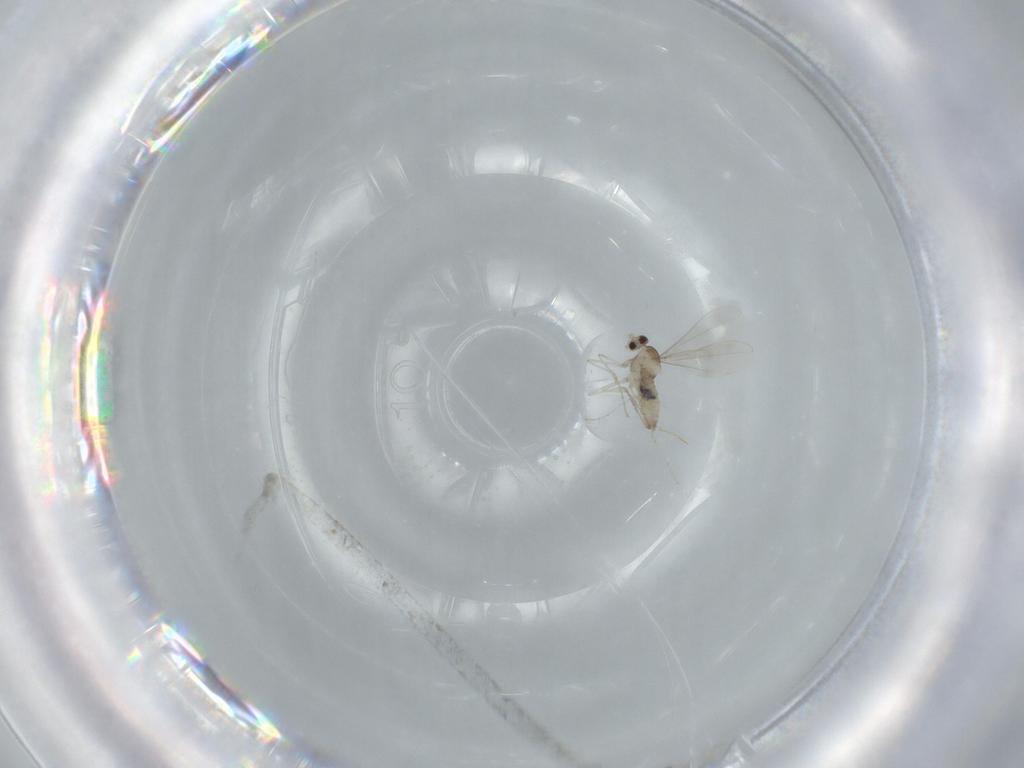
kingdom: Animalia
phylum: Arthropoda
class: Insecta
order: Diptera
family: Cecidomyiidae
